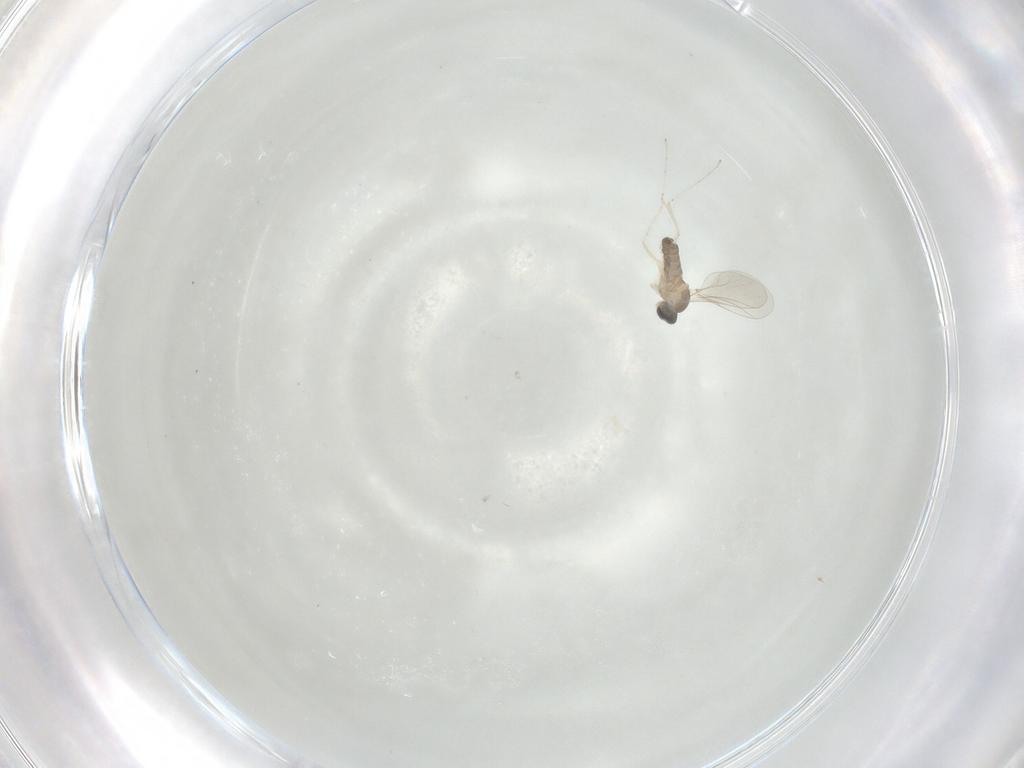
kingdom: Animalia
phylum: Arthropoda
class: Insecta
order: Diptera
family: Cecidomyiidae
